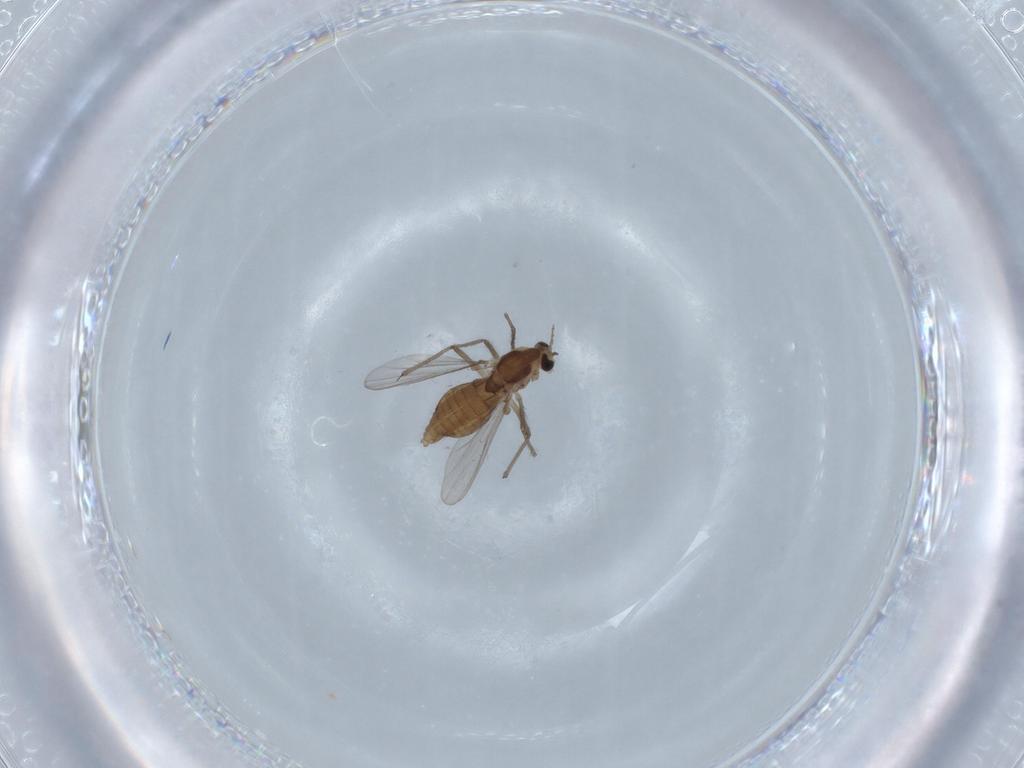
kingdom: Animalia
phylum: Arthropoda
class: Insecta
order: Diptera
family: Chironomidae
